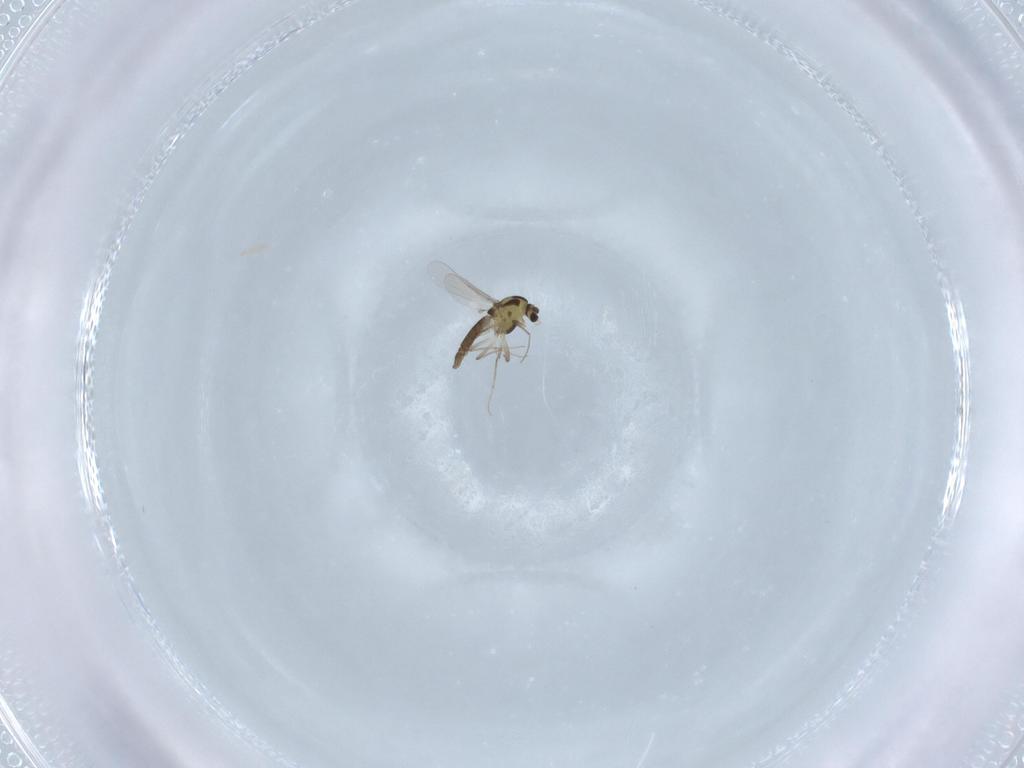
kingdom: Animalia
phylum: Arthropoda
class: Insecta
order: Diptera
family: Chironomidae
